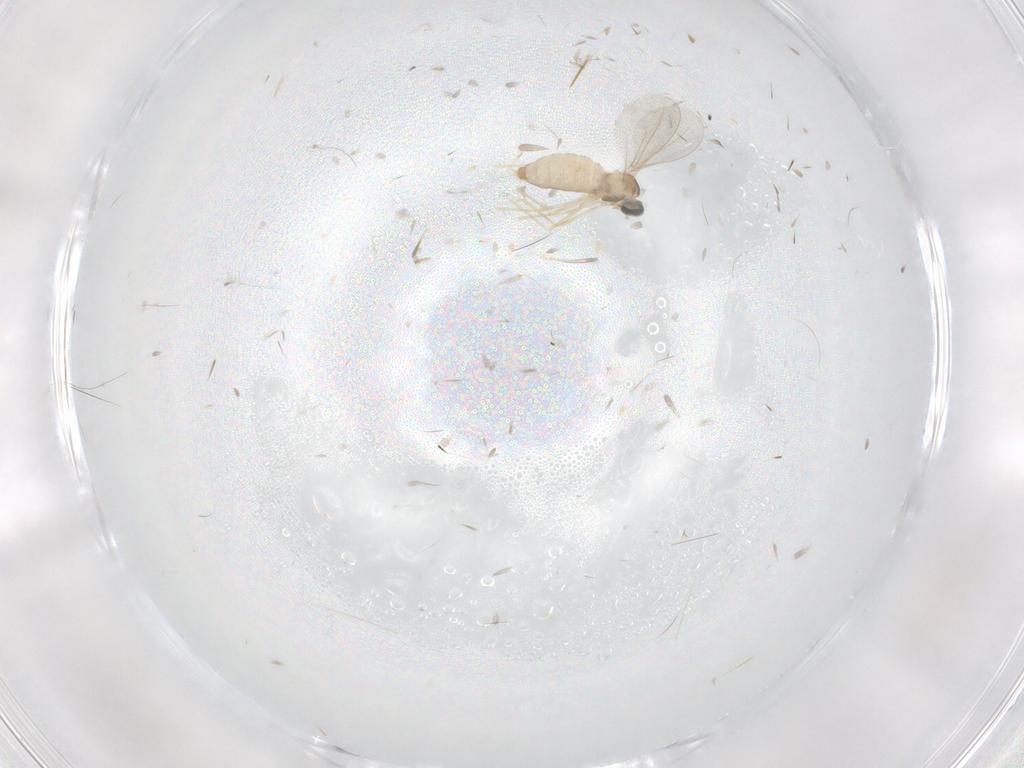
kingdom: Animalia
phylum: Arthropoda
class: Insecta
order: Diptera
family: Cecidomyiidae
